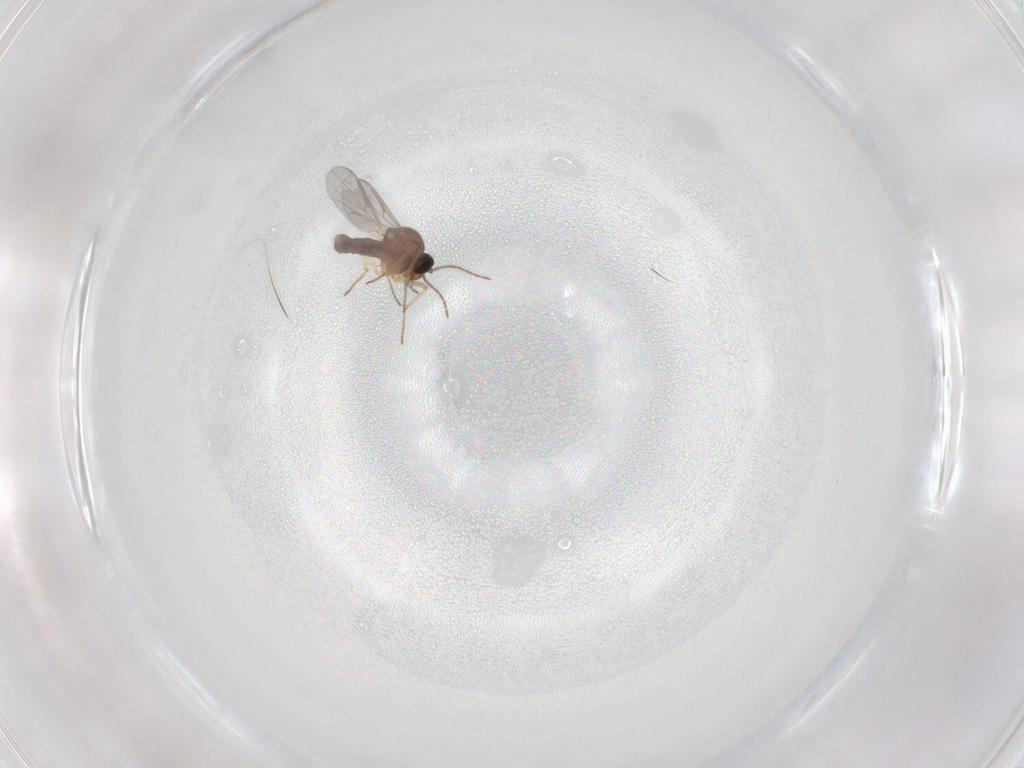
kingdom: Animalia
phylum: Arthropoda
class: Insecta
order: Diptera
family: Ceratopogonidae
